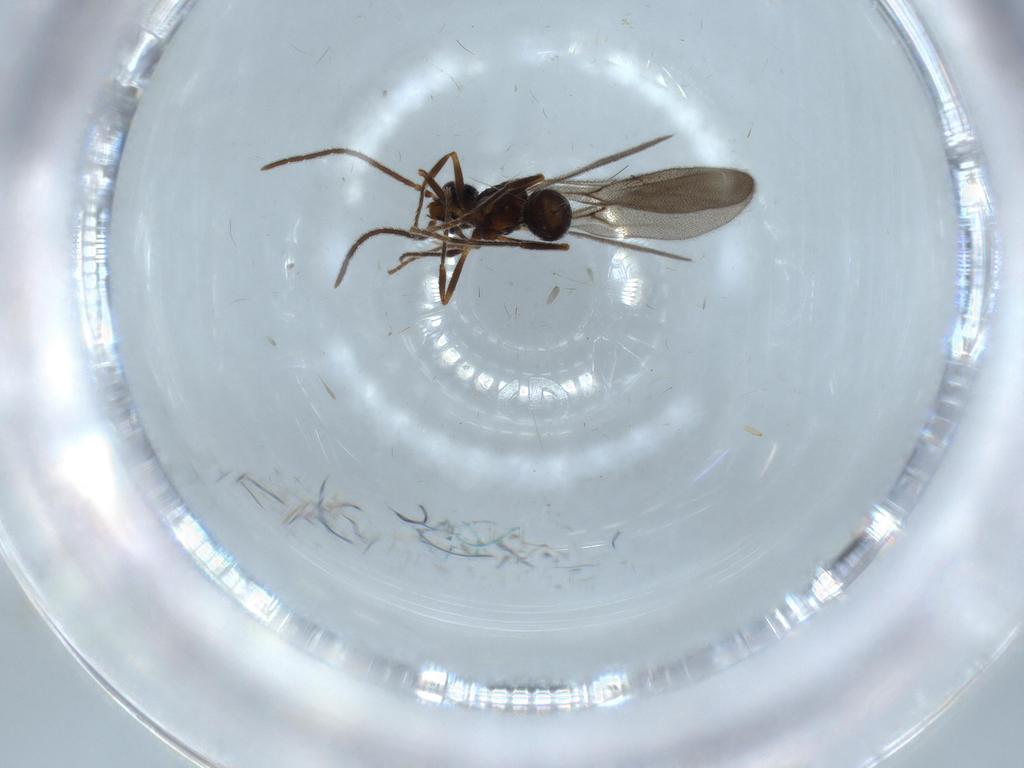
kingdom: Animalia
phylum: Arthropoda
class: Insecta
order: Hymenoptera
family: Formicidae
